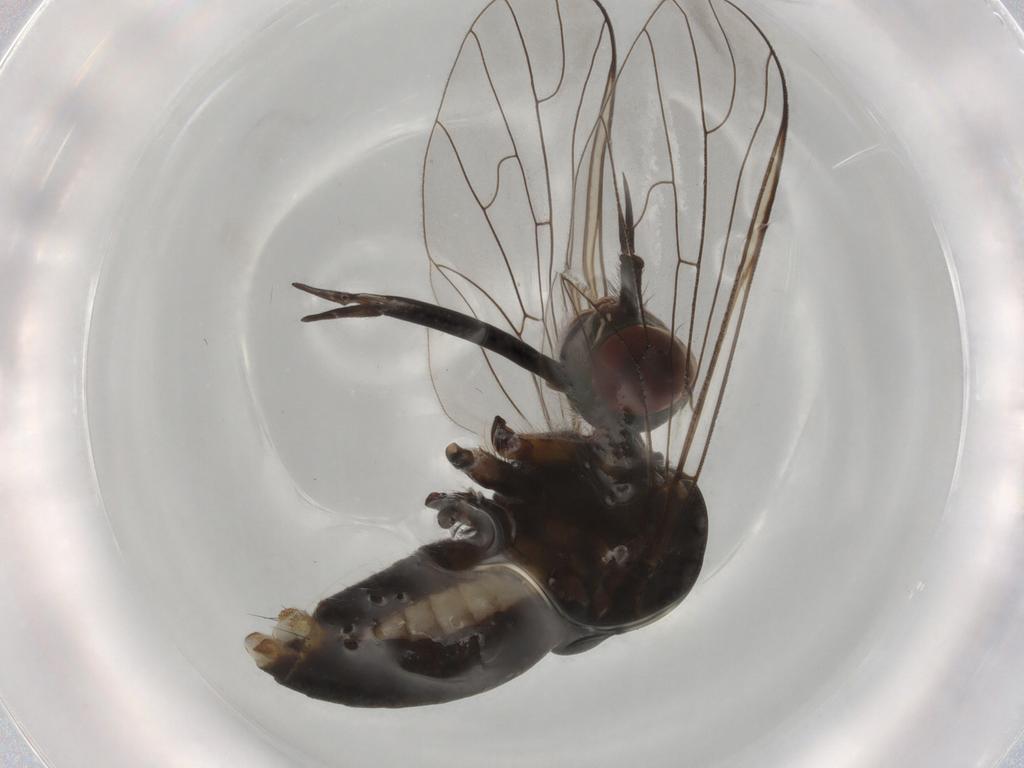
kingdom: Animalia
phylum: Arthropoda
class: Insecta
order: Diptera
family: Bombyliidae
